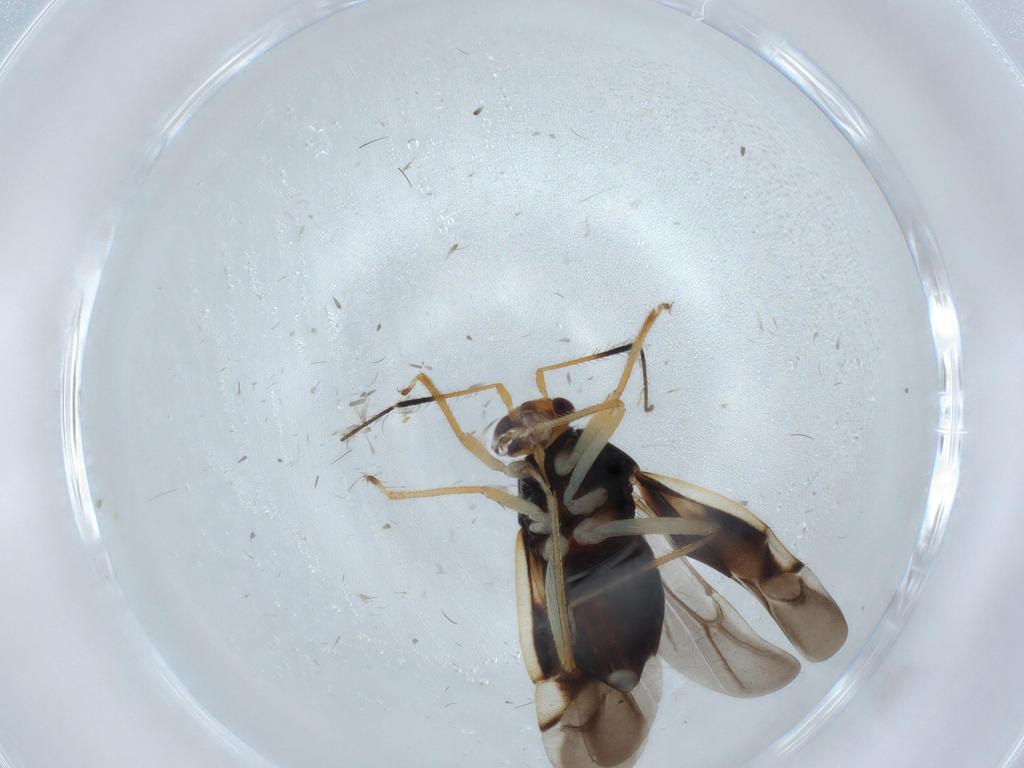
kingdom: Animalia
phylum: Arthropoda
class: Insecta
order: Hemiptera
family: Miridae
